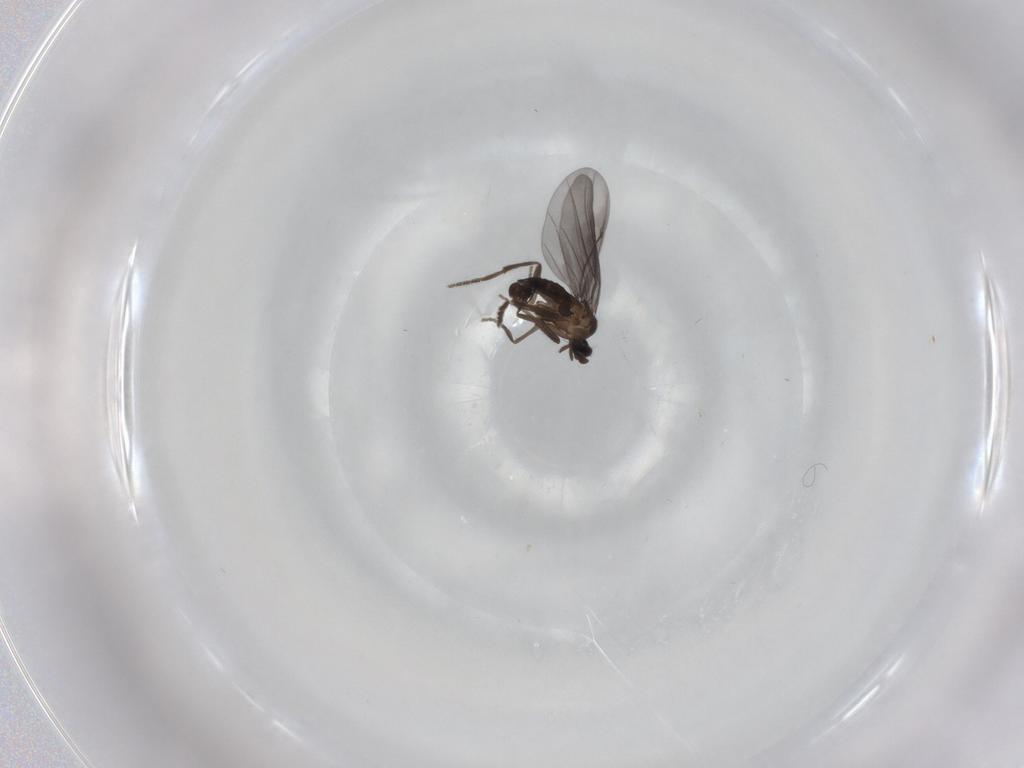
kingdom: Animalia
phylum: Arthropoda
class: Insecta
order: Diptera
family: Phoridae
